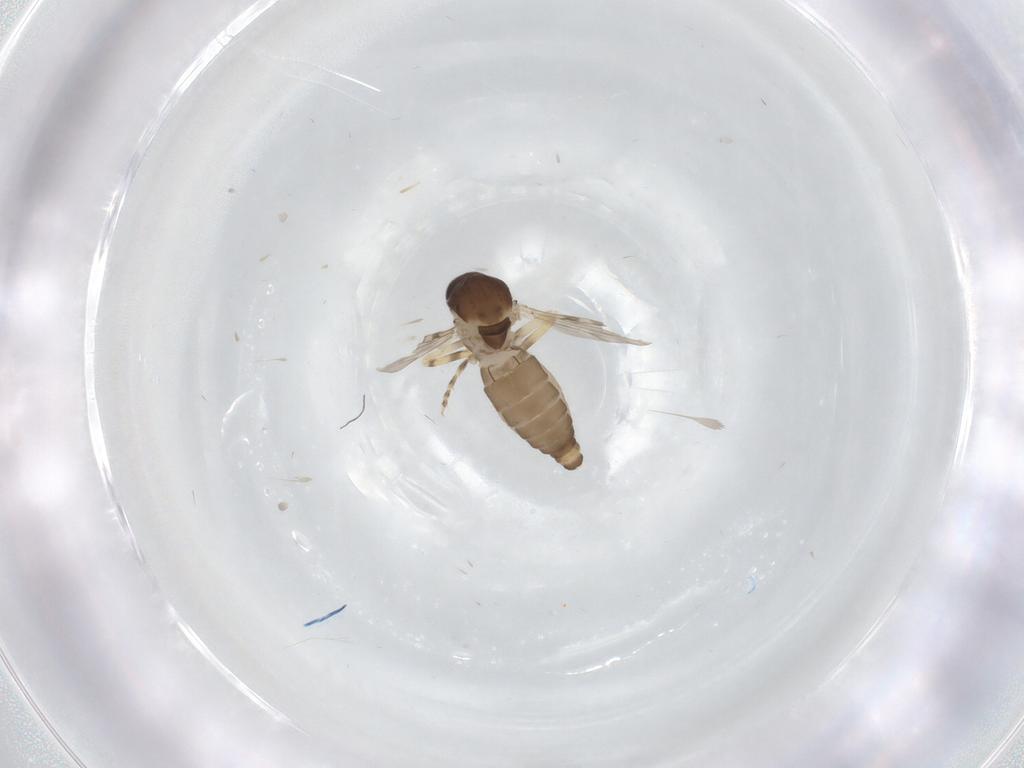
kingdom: Animalia
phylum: Arthropoda
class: Insecta
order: Diptera
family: Ceratopogonidae
